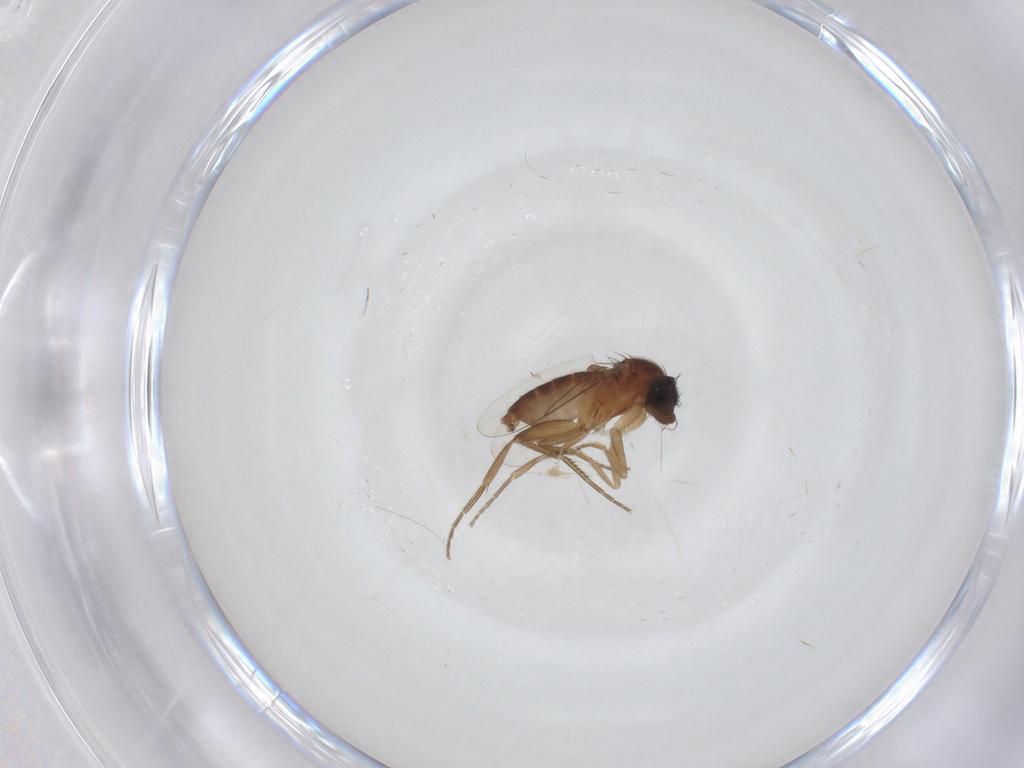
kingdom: Animalia
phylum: Arthropoda
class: Insecta
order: Diptera
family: Phoridae
